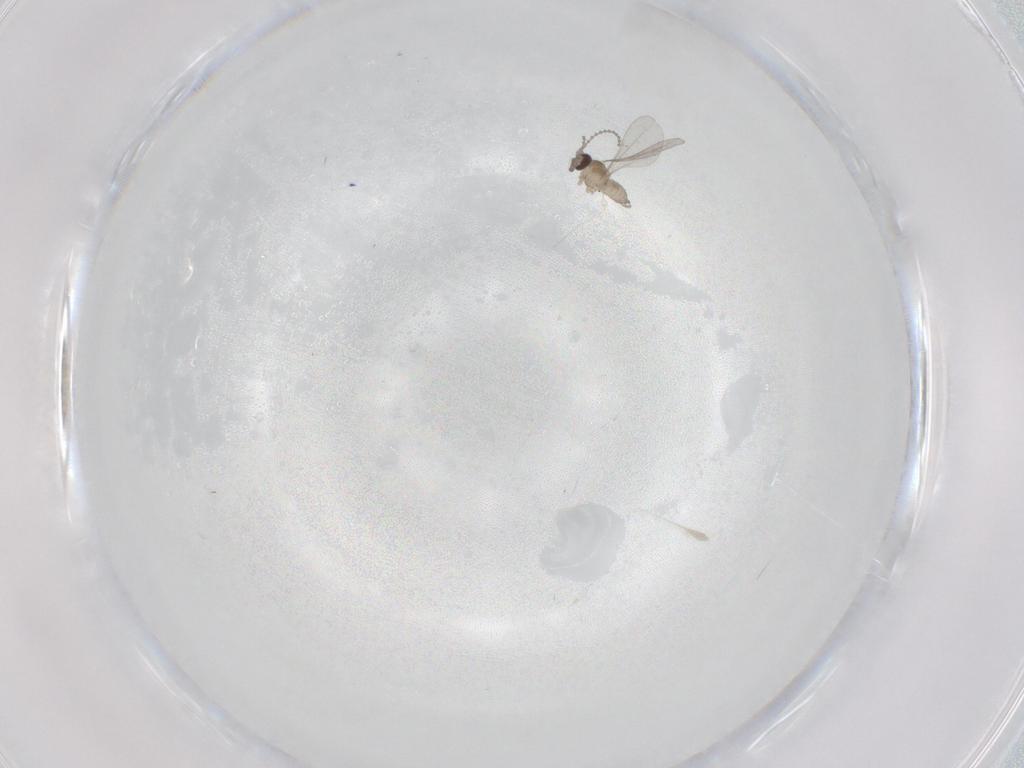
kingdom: Animalia
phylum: Arthropoda
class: Insecta
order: Diptera
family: Cecidomyiidae
